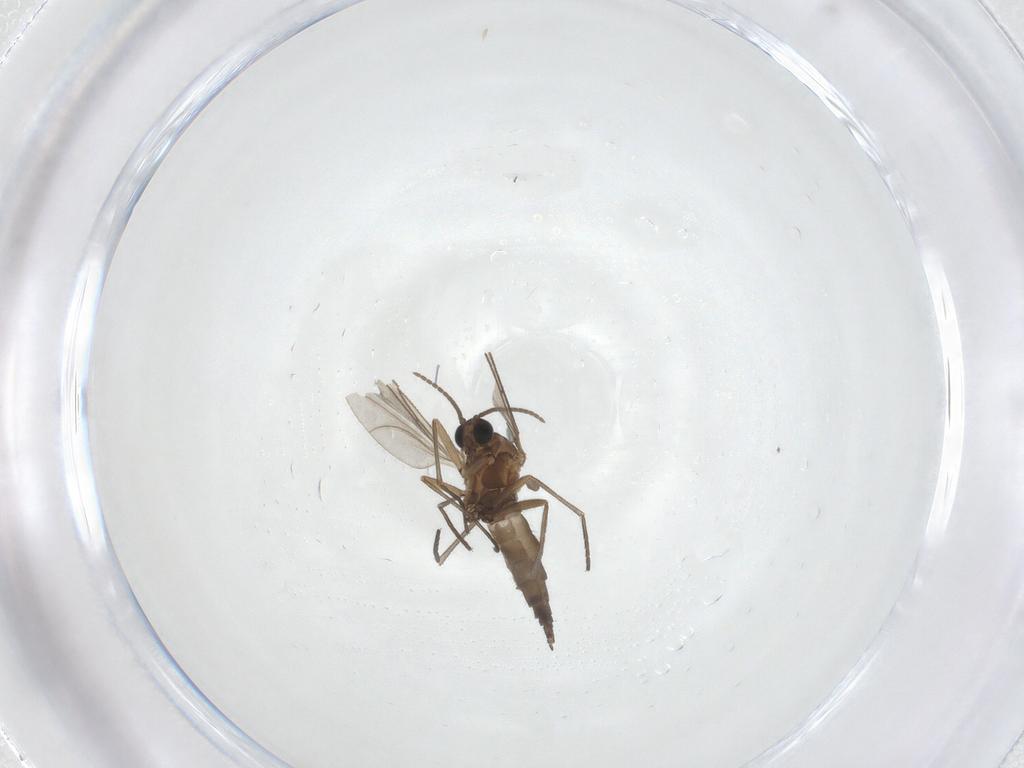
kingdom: Animalia
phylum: Arthropoda
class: Insecta
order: Diptera
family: Sciaridae
